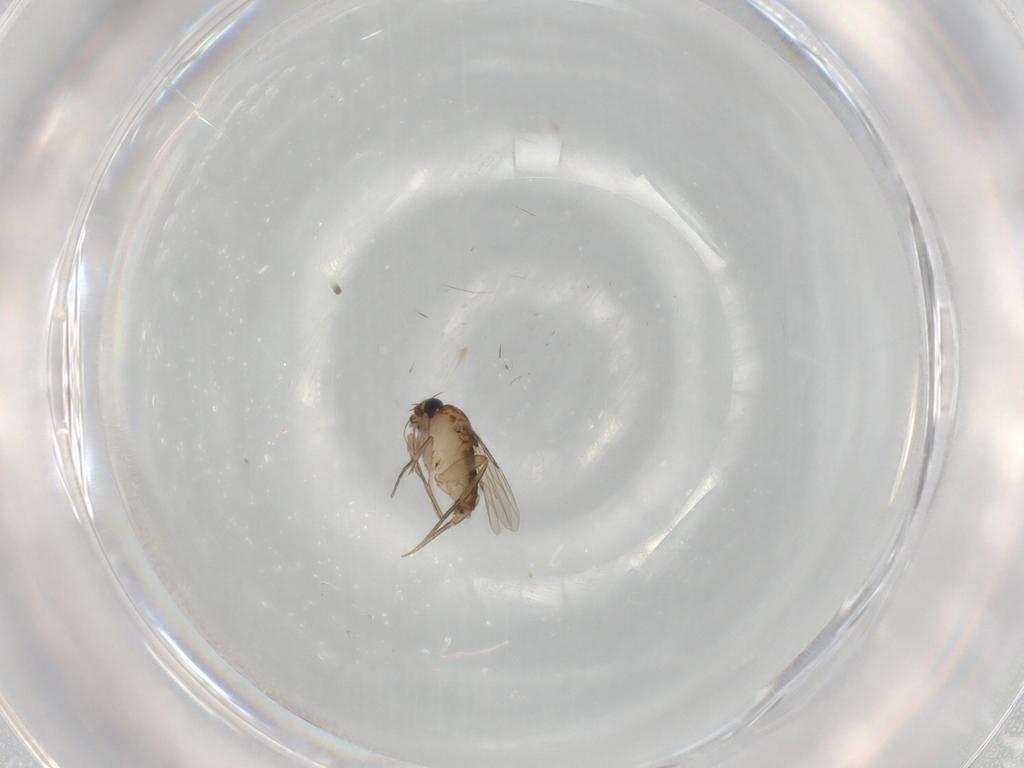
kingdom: Animalia
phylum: Arthropoda
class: Insecta
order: Diptera
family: Phoridae
